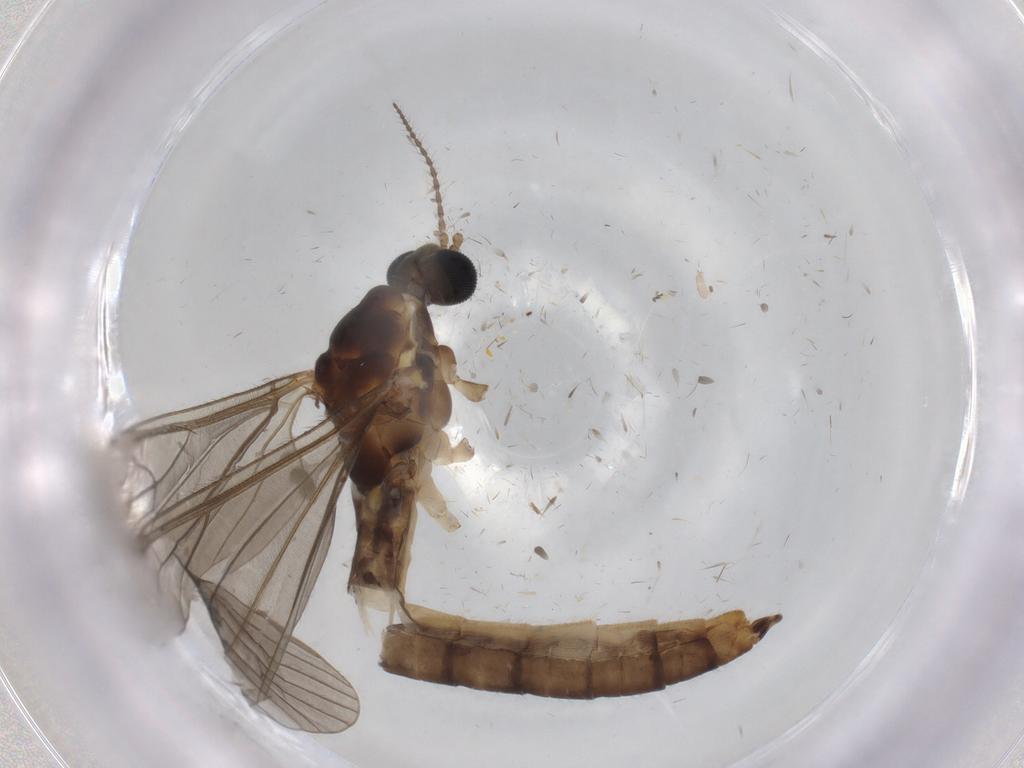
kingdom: Animalia
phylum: Arthropoda
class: Insecta
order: Diptera
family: Phoridae
